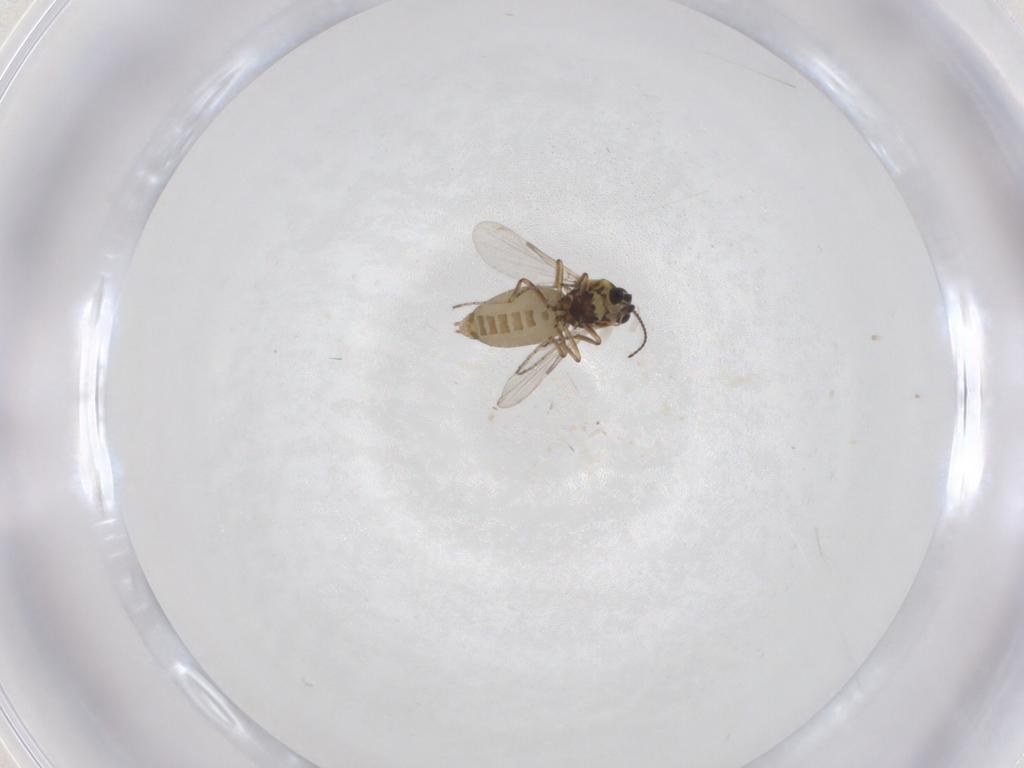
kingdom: Animalia
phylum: Arthropoda
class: Insecta
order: Diptera
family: Ceratopogonidae
